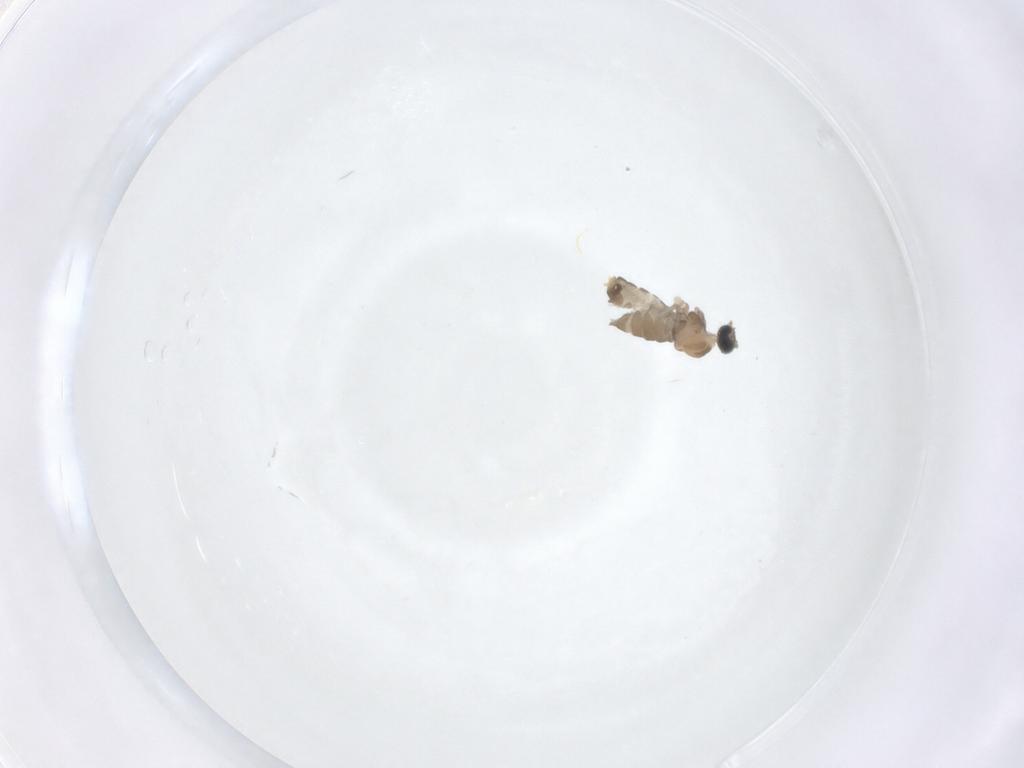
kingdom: Animalia
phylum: Arthropoda
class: Insecta
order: Diptera
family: Cecidomyiidae
